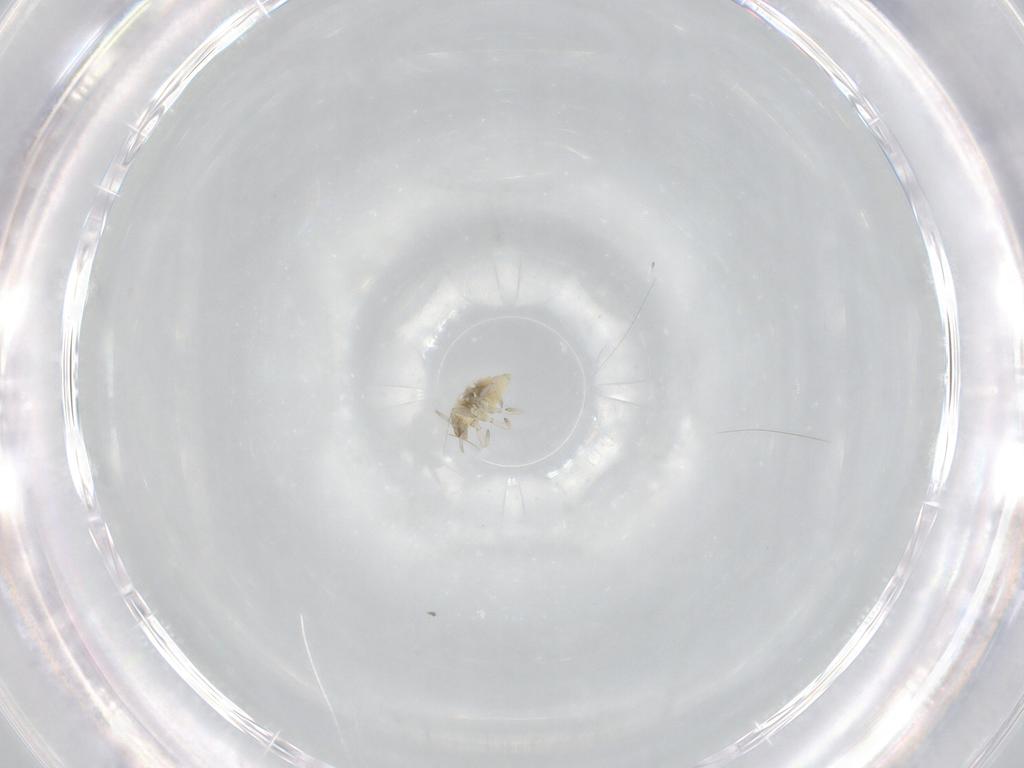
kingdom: Animalia
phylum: Arthropoda
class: Insecta
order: Neuroptera
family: Coniopterygidae
